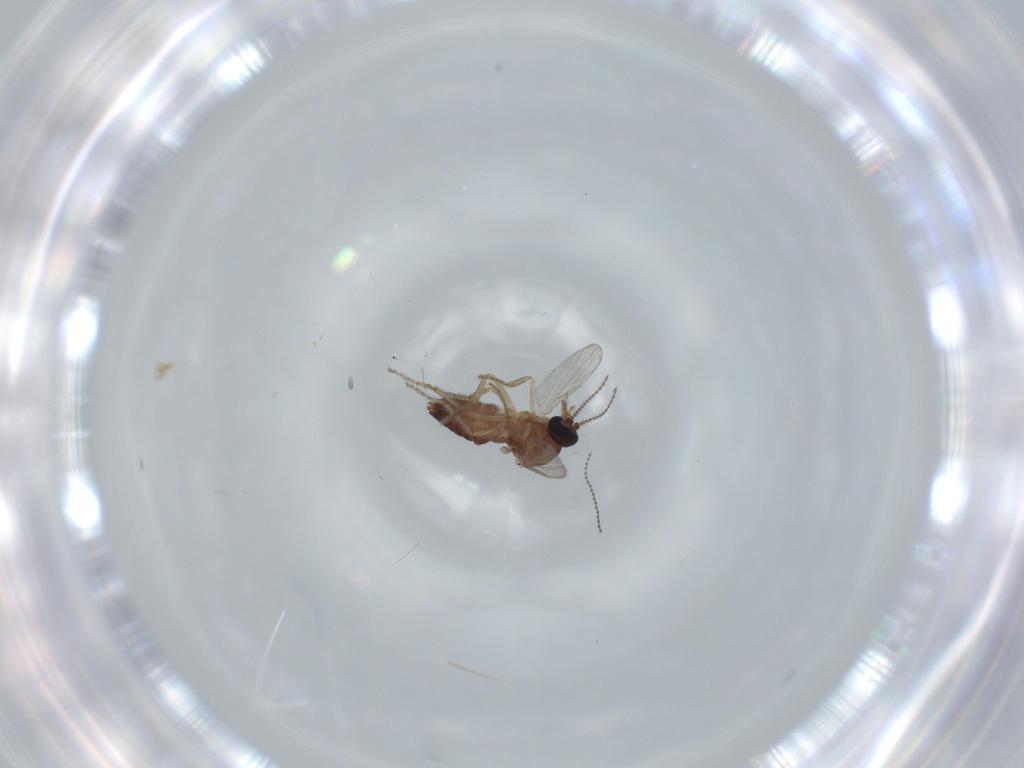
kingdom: Animalia
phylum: Arthropoda
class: Insecta
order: Diptera
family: Ceratopogonidae
